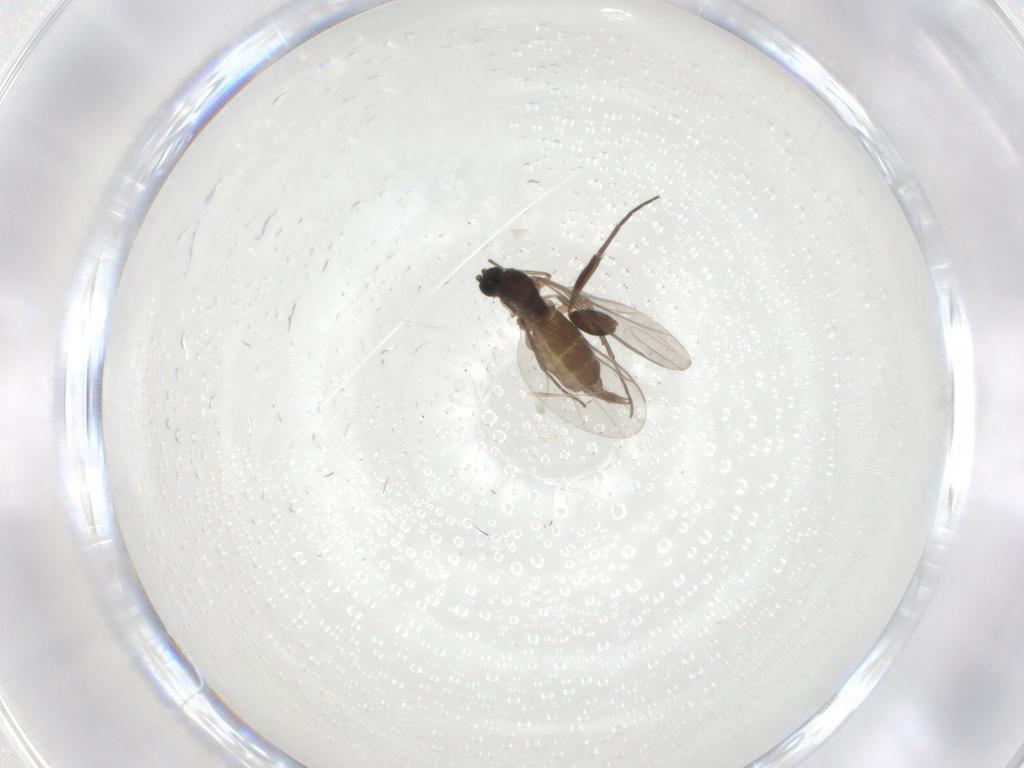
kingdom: Animalia
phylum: Arthropoda
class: Insecta
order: Diptera
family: Sciaridae
